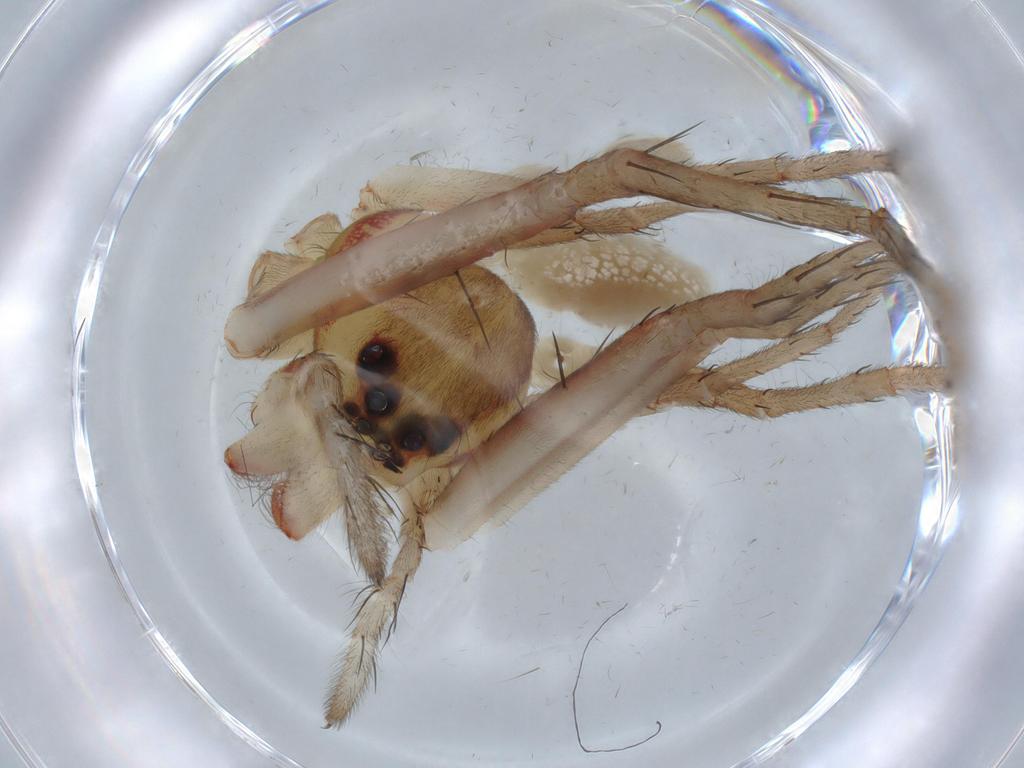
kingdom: Animalia
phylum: Arthropoda
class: Arachnida
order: Araneae
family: Pisauridae
